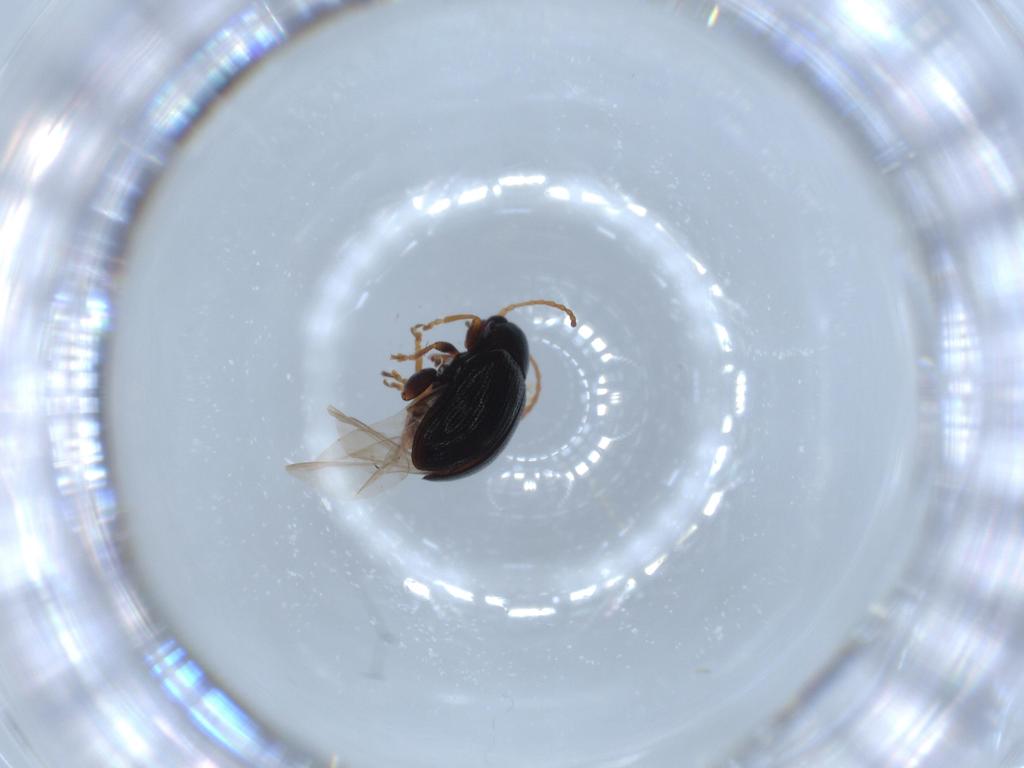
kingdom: Animalia
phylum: Arthropoda
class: Insecta
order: Coleoptera
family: Chrysomelidae
